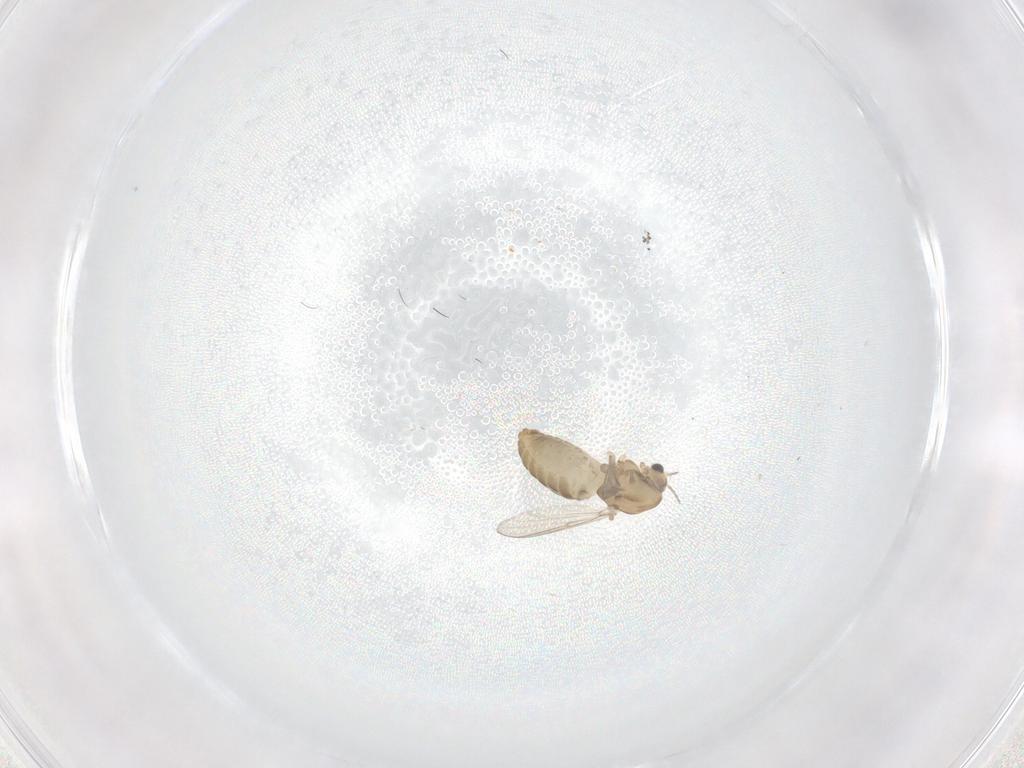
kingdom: Animalia
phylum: Arthropoda
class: Insecta
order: Diptera
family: Chironomidae
